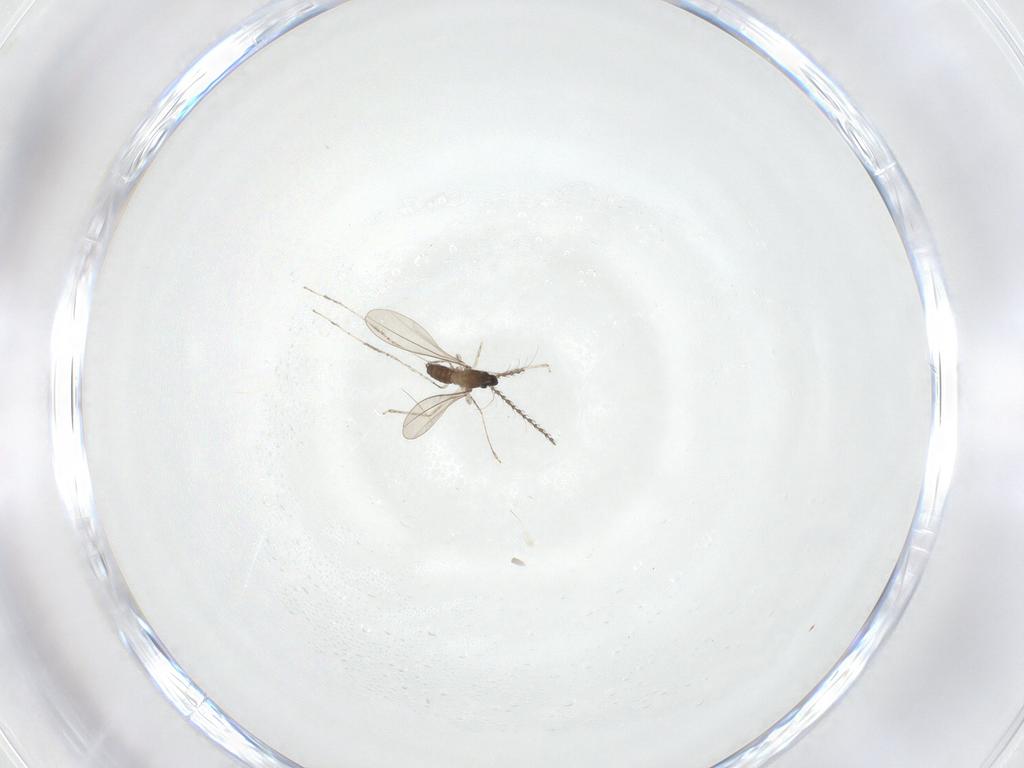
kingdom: Animalia
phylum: Arthropoda
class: Insecta
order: Diptera
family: Cecidomyiidae
